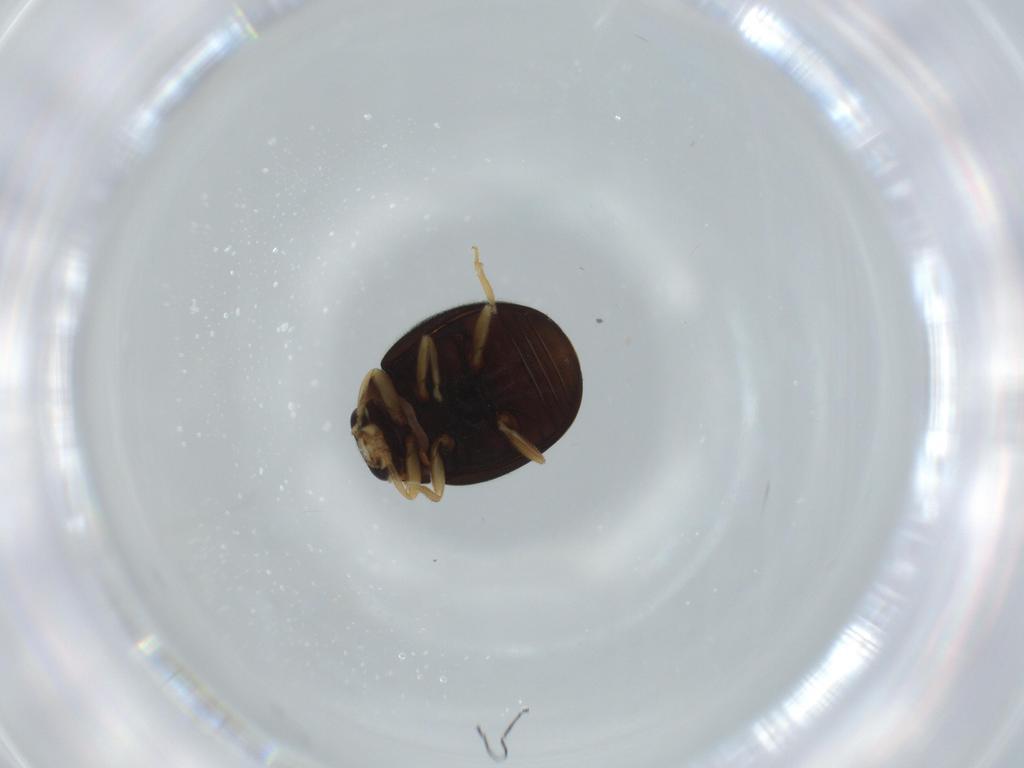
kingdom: Animalia
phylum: Arthropoda
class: Insecta
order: Coleoptera
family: Coccinellidae
